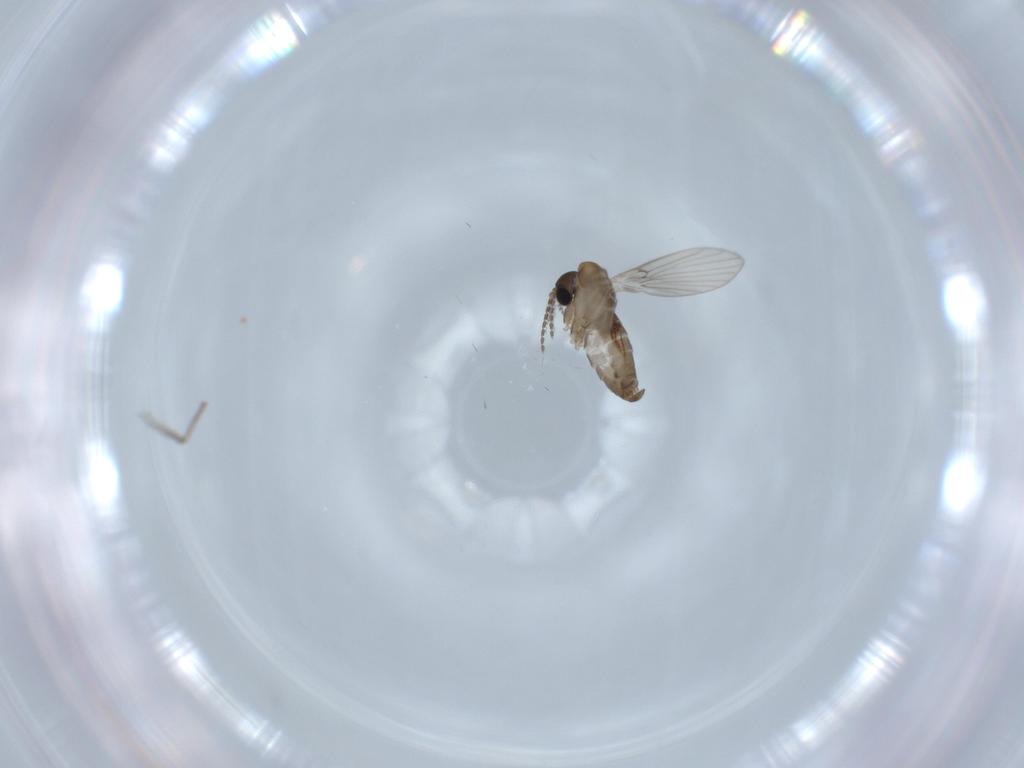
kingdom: Animalia
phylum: Arthropoda
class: Insecta
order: Diptera
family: Psychodidae
